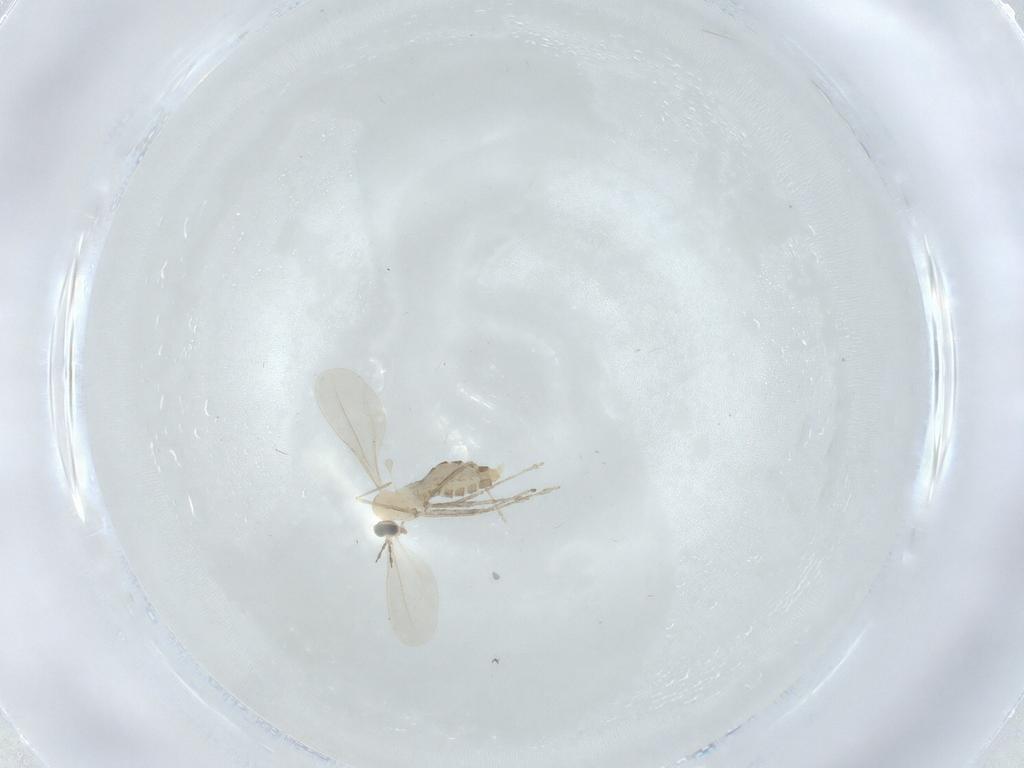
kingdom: Animalia
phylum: Arthropoda
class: Insecta
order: Diptera
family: Cecidomyiidae
